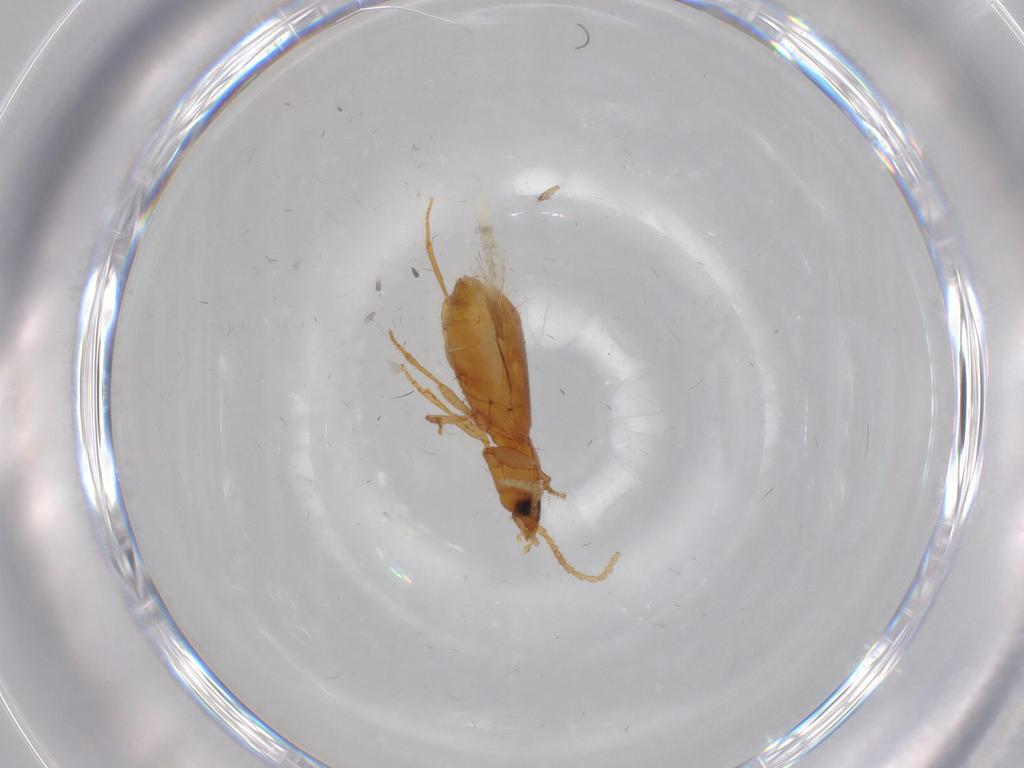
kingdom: Animalia
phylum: Arthropoda
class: Insecta
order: Coleoptera
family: Carabidae
